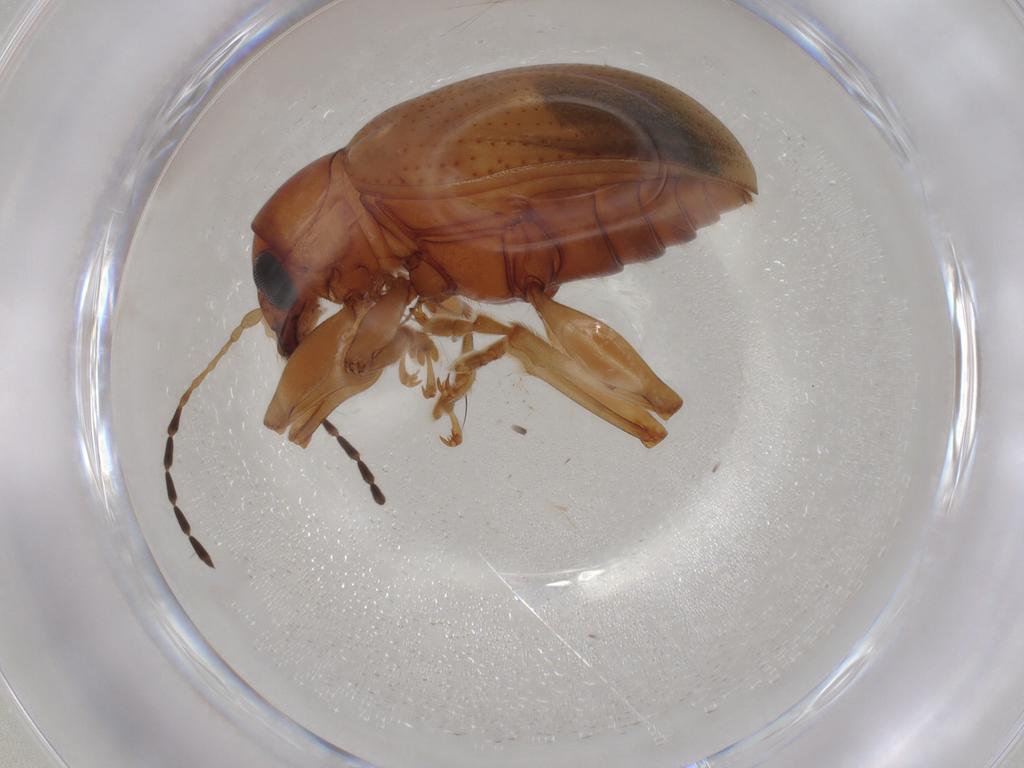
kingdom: Animalia
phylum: Arthropoda
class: Insecta
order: Coleoptera
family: Chrysomelidae
